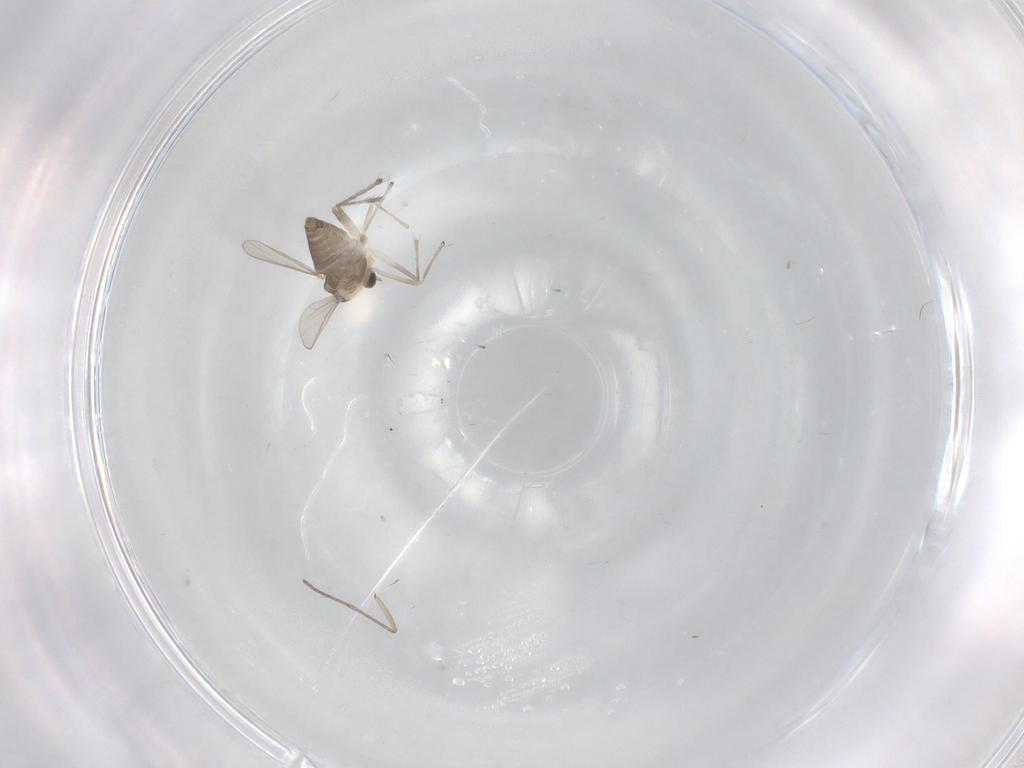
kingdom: Animalia
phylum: Arthropoda
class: Insecta
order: Diptera
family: Chironomidae
